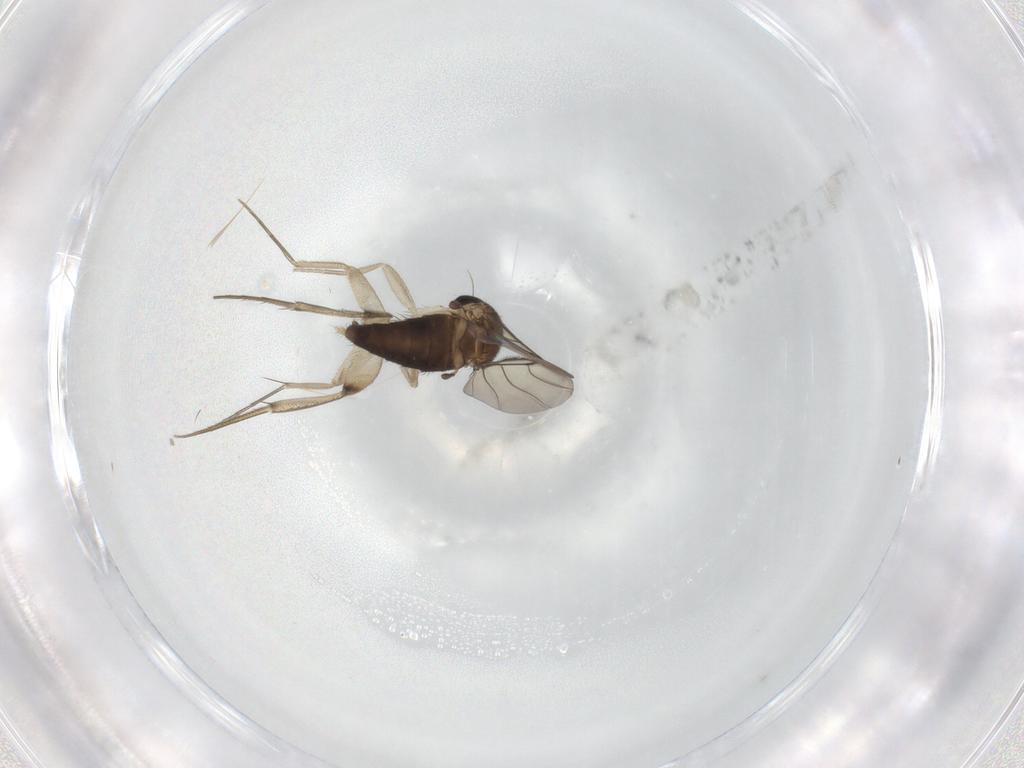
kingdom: Animalia
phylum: Arthropoda
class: Insecta
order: Diptera
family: Phoridae
